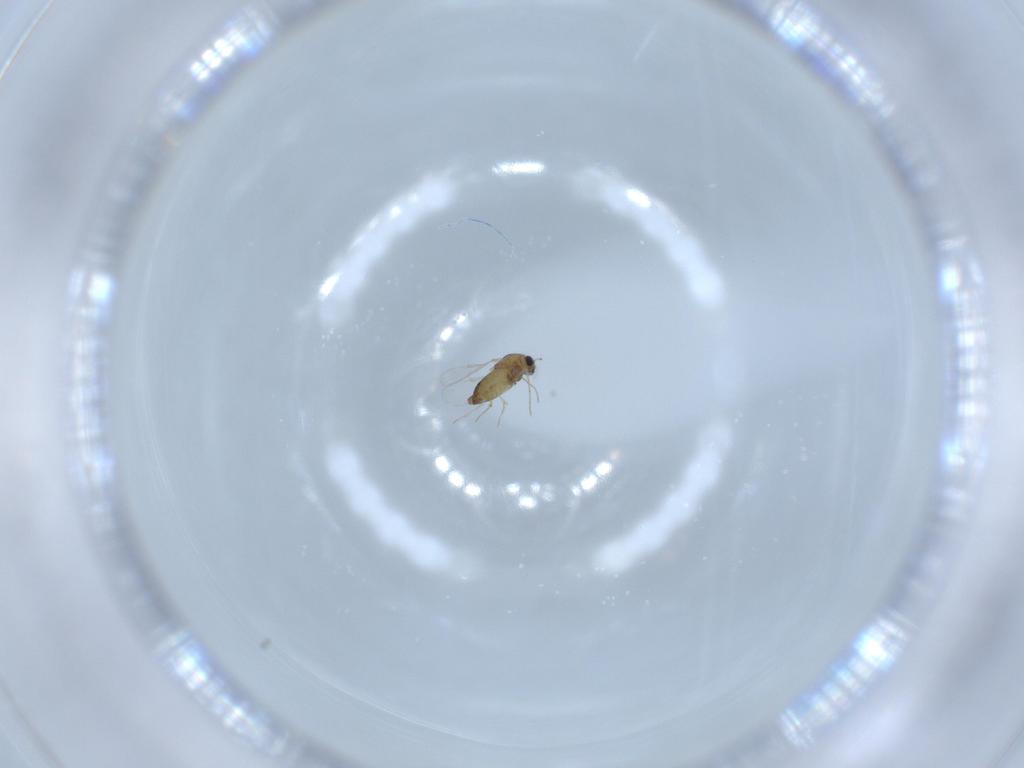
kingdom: Animalia
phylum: Arthropoda
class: Insecta
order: Diptera
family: Chironomidae
